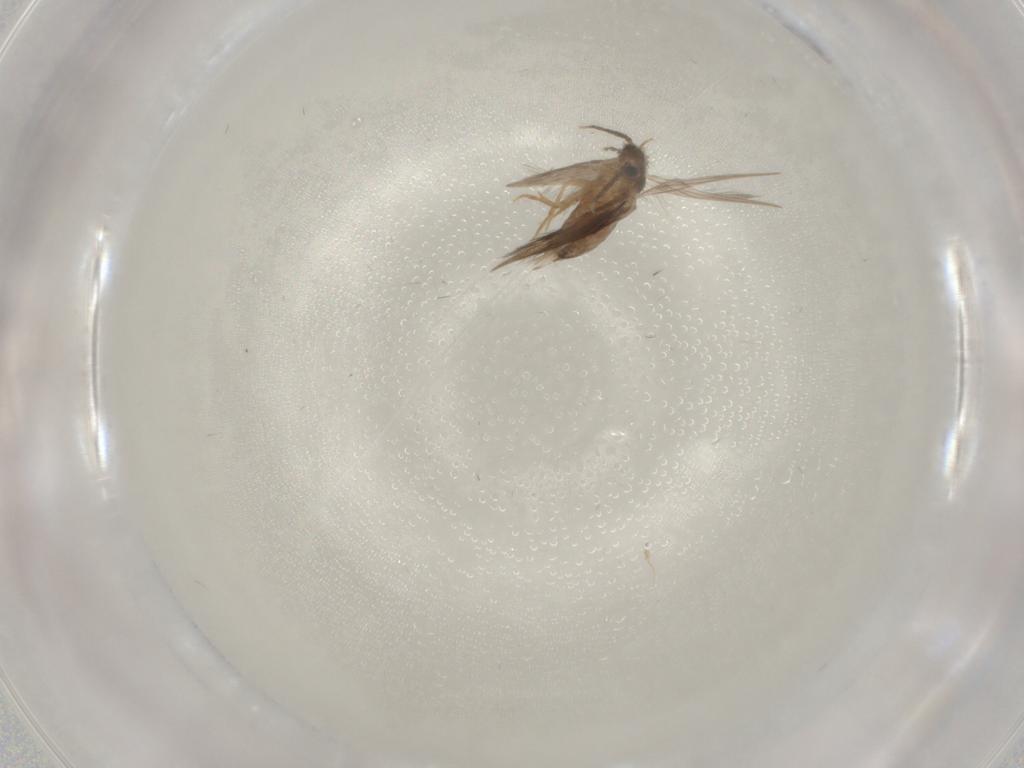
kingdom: Animalia
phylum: Arthropoda
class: Insecta
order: Trichoptera
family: Hydroptilidae
